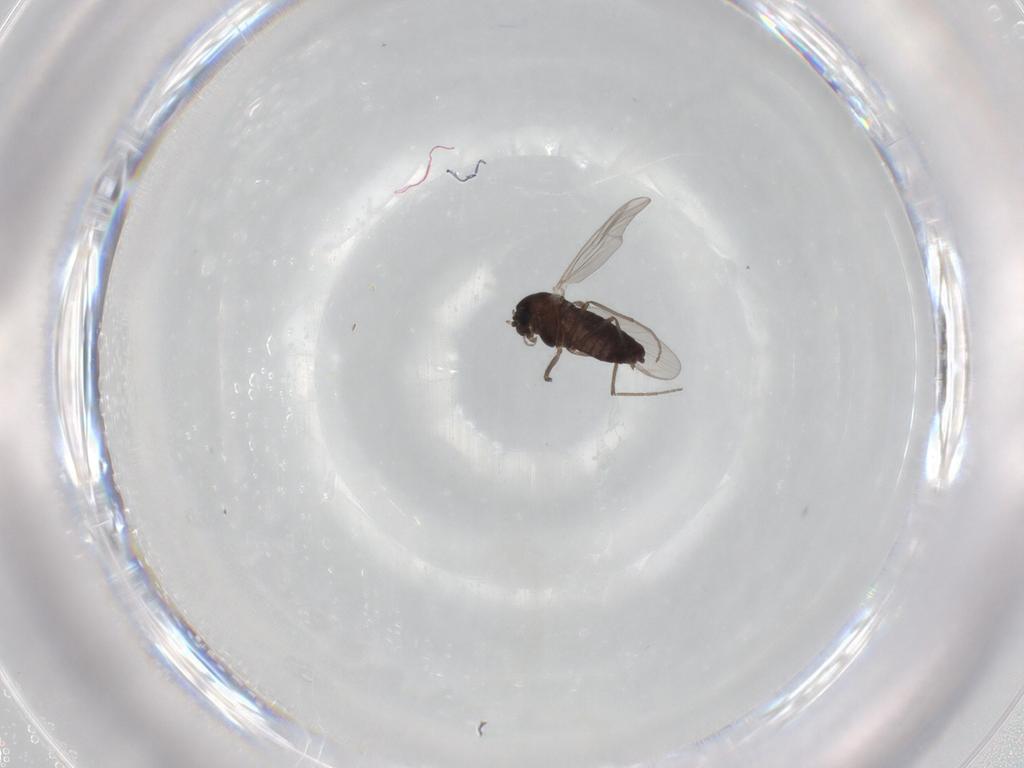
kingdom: Animalia
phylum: Arthropoda
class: Insecta
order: Diptera
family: Chironomidae
